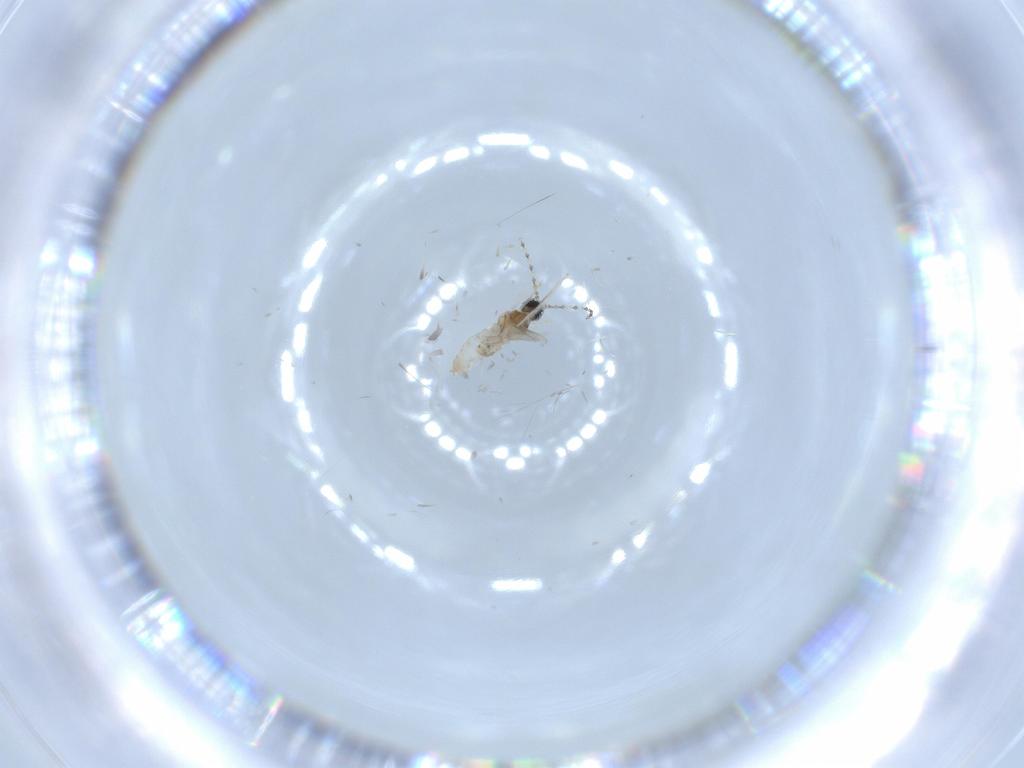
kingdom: Animalia
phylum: Arthropoda
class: Insecta
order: Diptera
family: Cecidomyiidae
